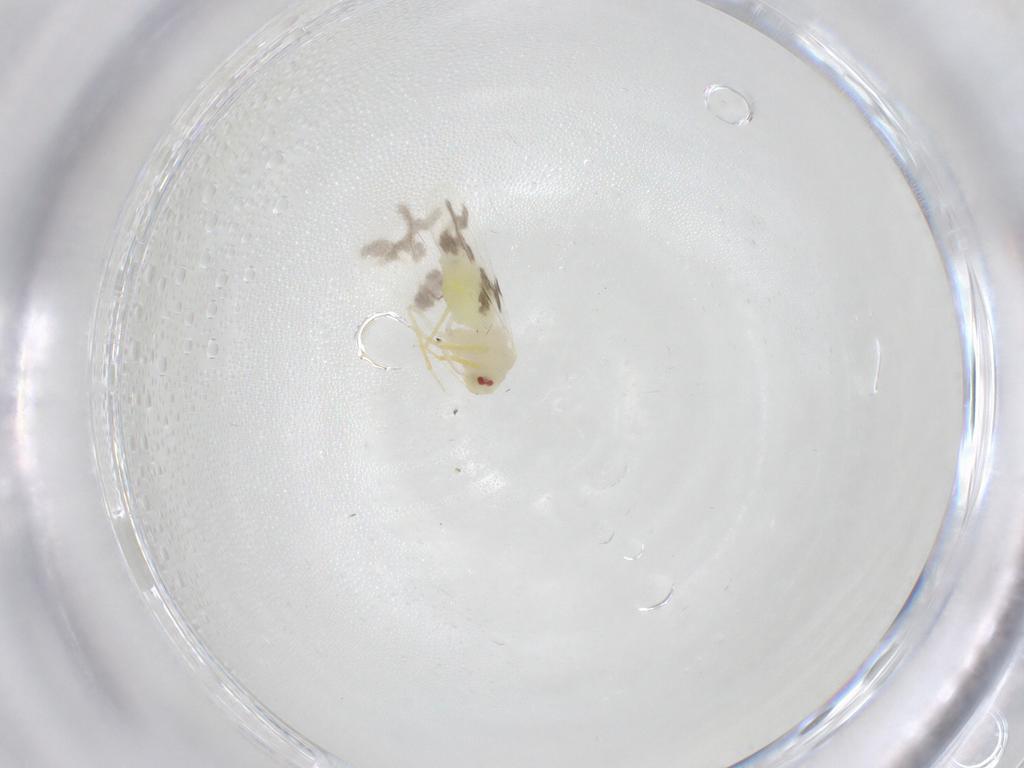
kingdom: Animalia
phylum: Arthropoda
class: Insecta
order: Hemiptera
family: Aleyrodidae
